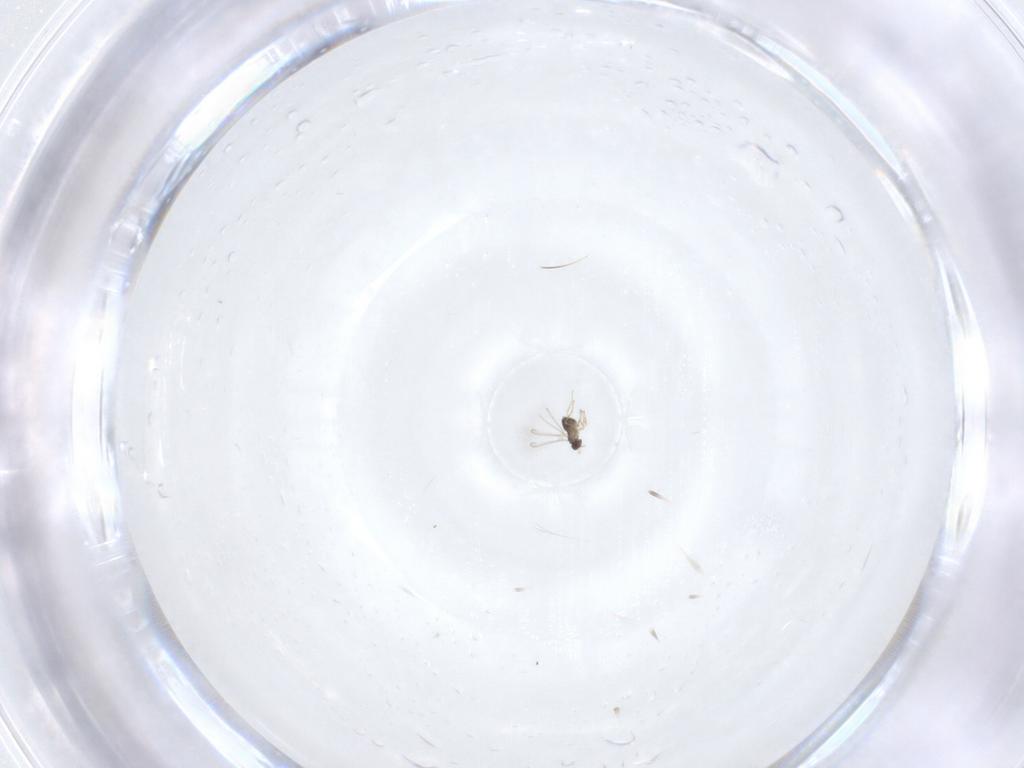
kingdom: Animalia
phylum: Arthropoda
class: Insecta
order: Hymenoptera
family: Mymaridae
